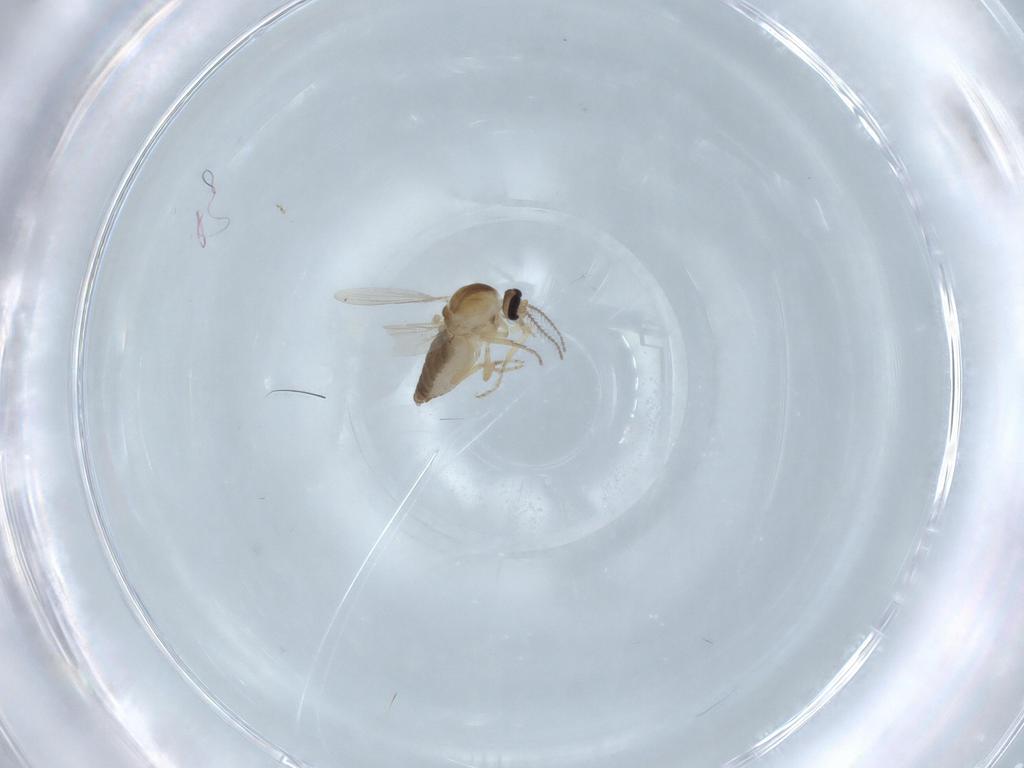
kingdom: Animalia
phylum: Arthropoda
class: Insecta
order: Diptera
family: Ceratopogonidae
